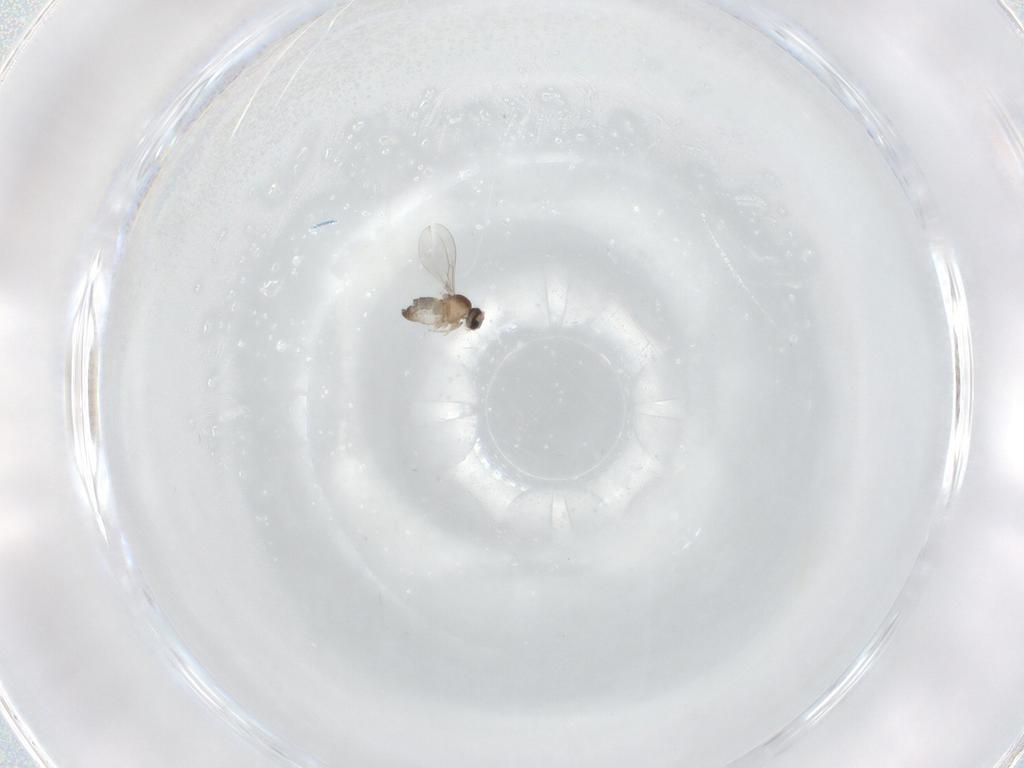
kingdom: Animalia
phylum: Arthropoda
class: Insecta
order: Diptera
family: Cecidomyiidae
